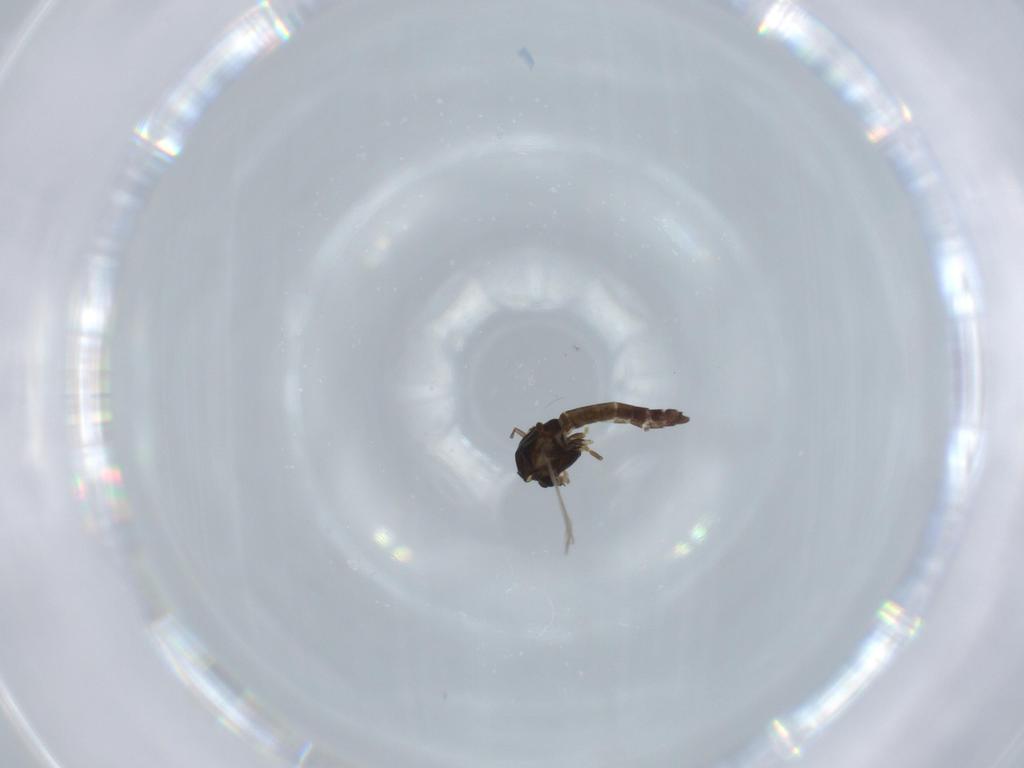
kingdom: Animalia
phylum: Arthropoda
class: Insecta
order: Diptera
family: Chironomidae
